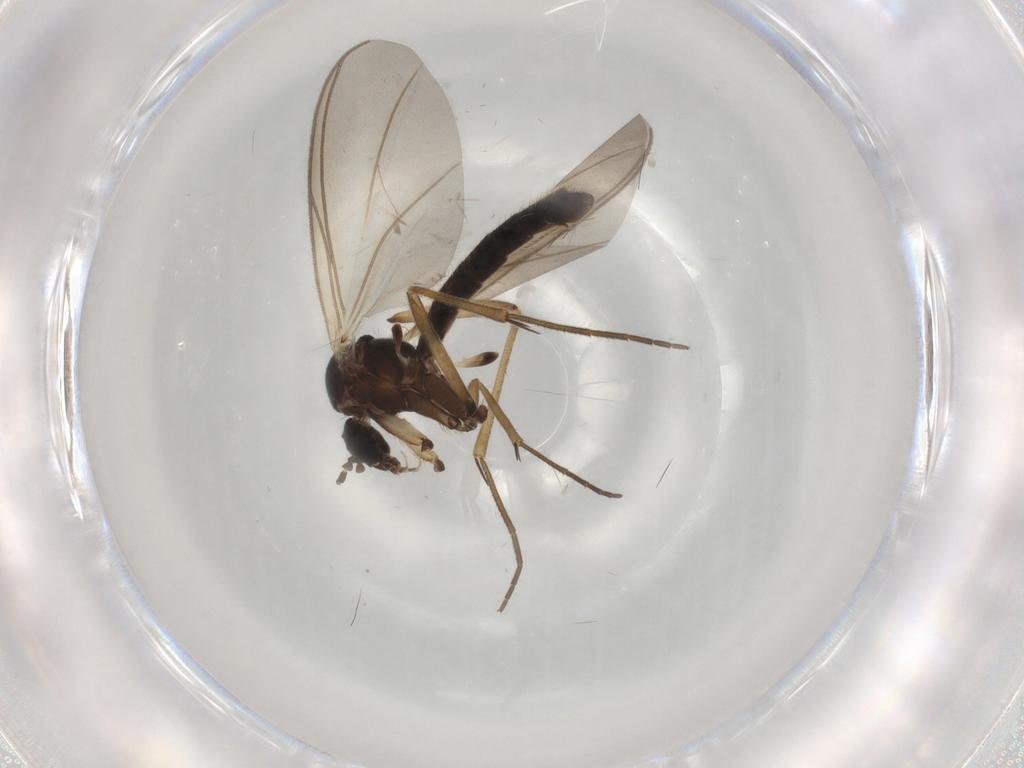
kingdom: Animalia
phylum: Arthropoda
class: Insecta
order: Diptera
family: Mycetophilidae
